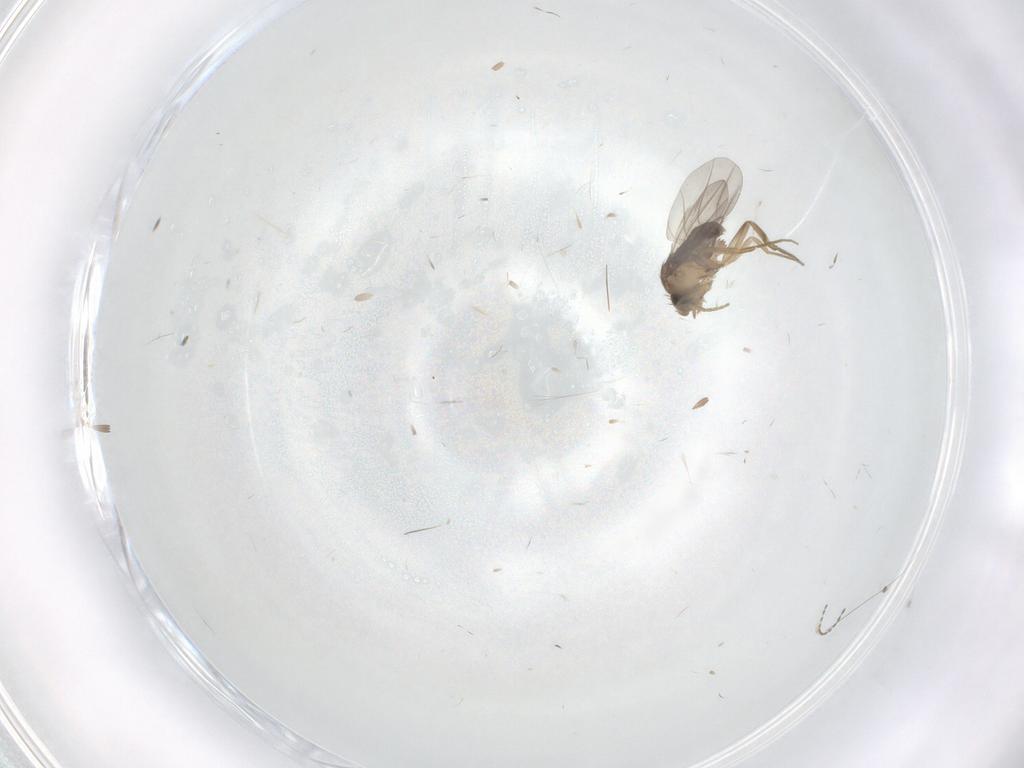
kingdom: Animalia
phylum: Arthropoda
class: Insecta
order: Diptera
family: Phoridae
